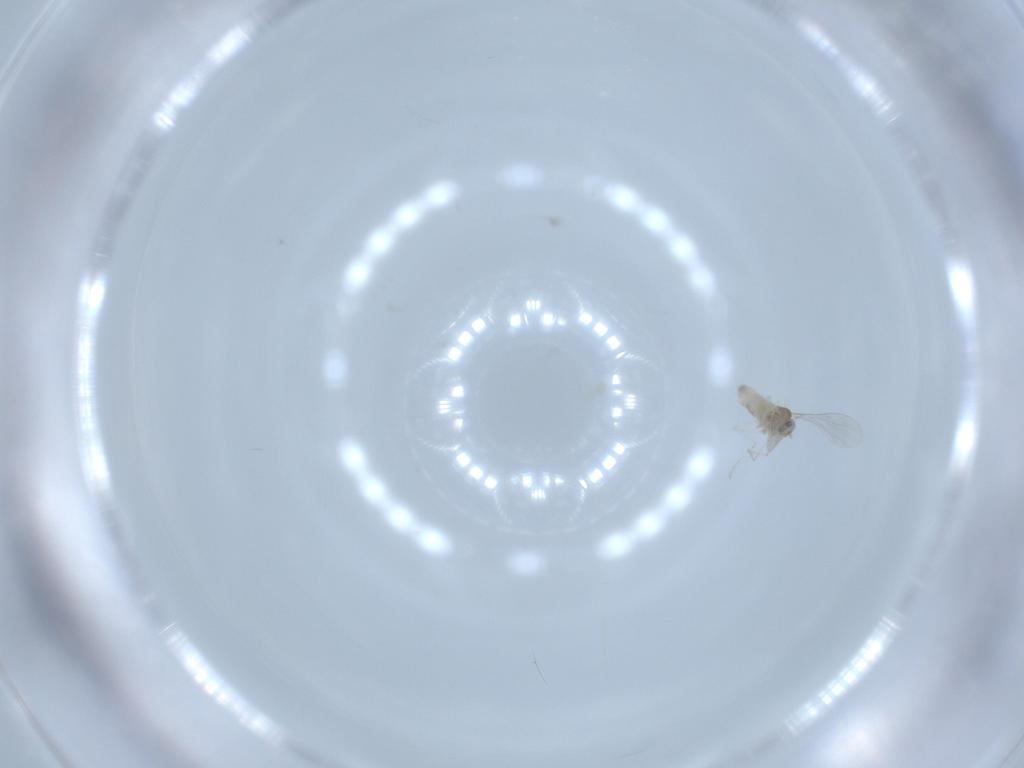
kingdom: Animalia
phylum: Arthropoda
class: Insecta
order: Diptera
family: Cecidomyiidae
